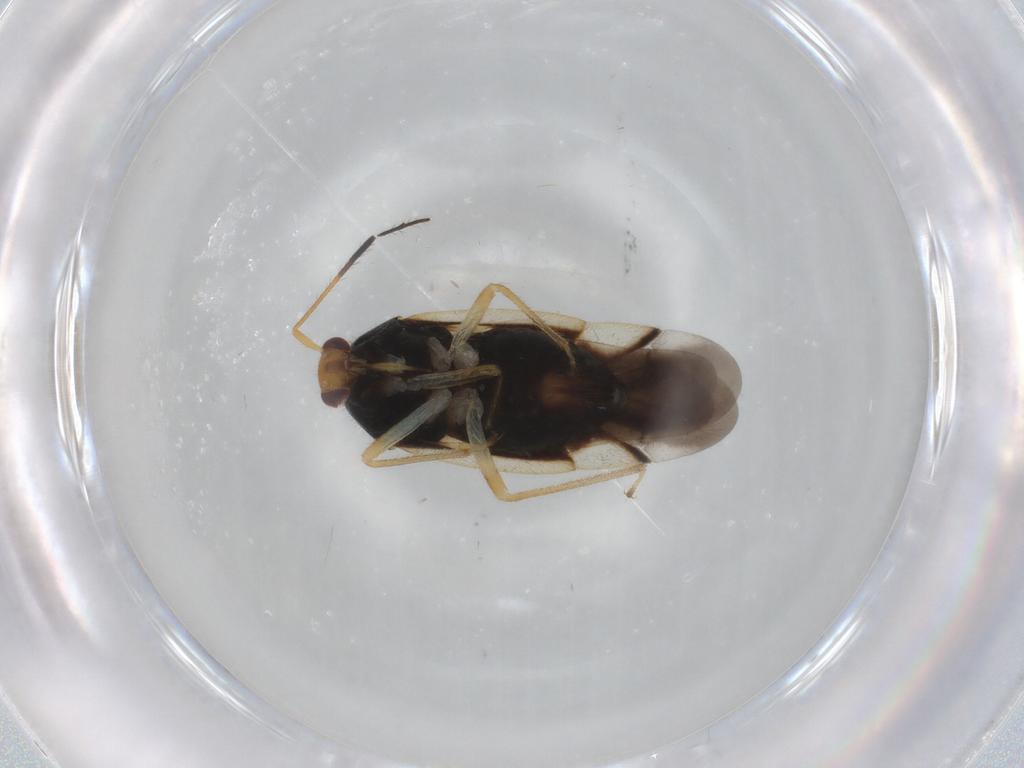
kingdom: Animalia
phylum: Arthropoda
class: Insecta
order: Hemiptera
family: Miridae
